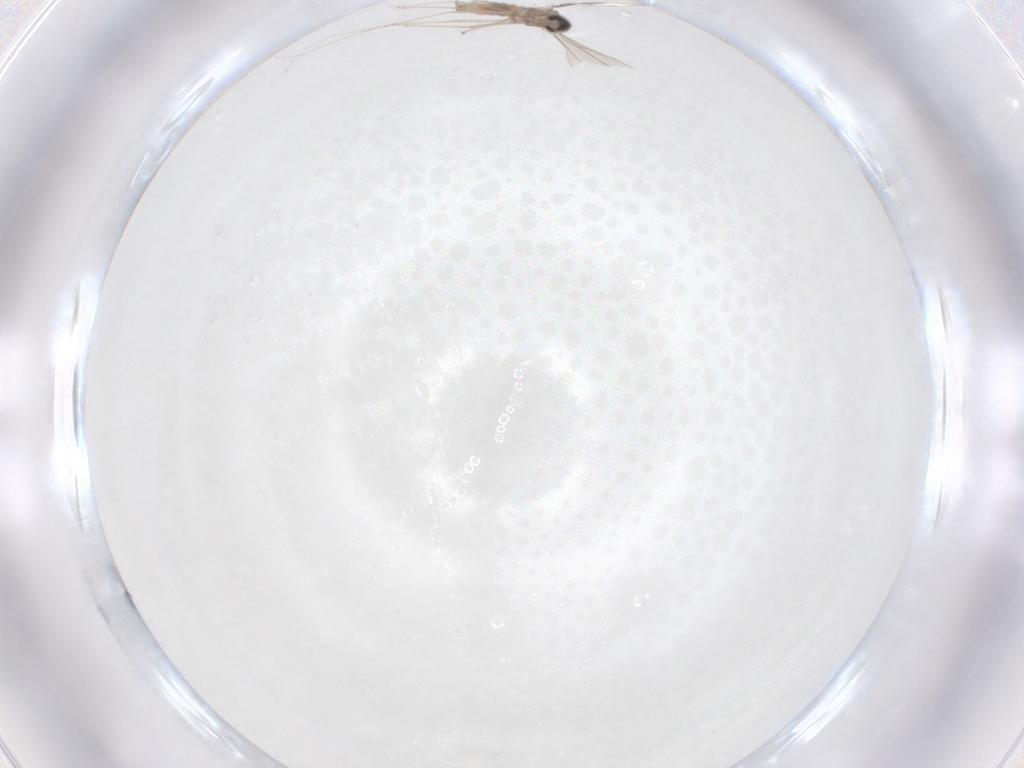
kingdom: Animalia
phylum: Arthropoda
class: Insecta
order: Diptera
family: Cecidomyiidae
